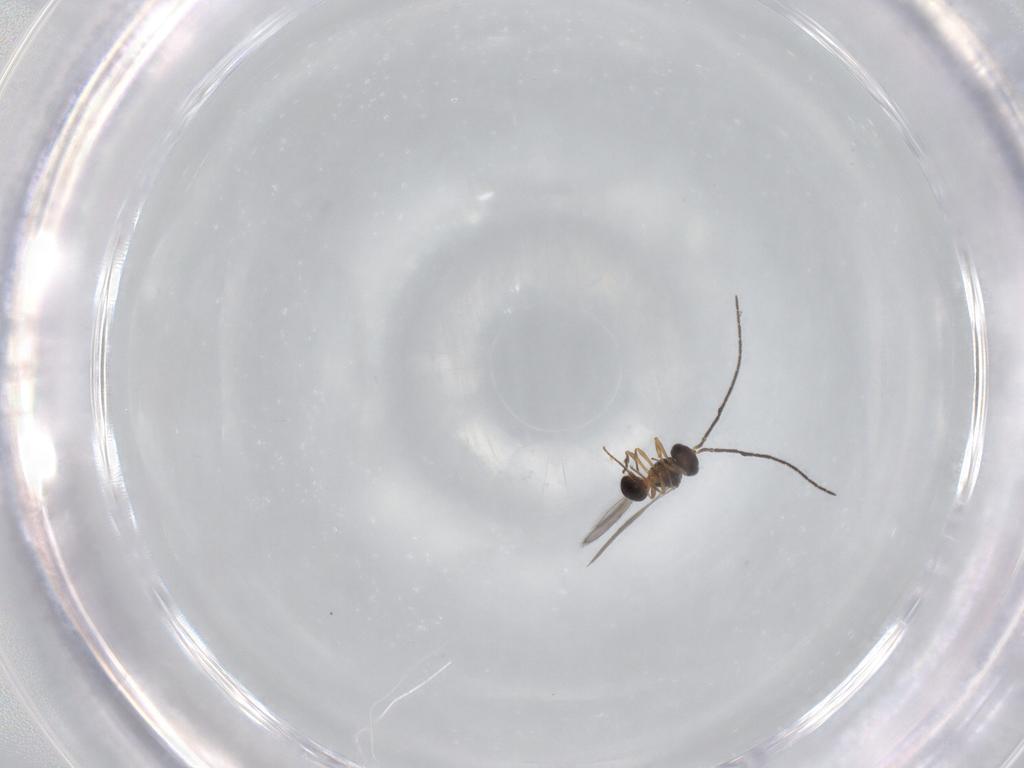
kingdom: Animalia
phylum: Arthropoda
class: Insecta
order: Hymenoptera
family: Scelionidae
